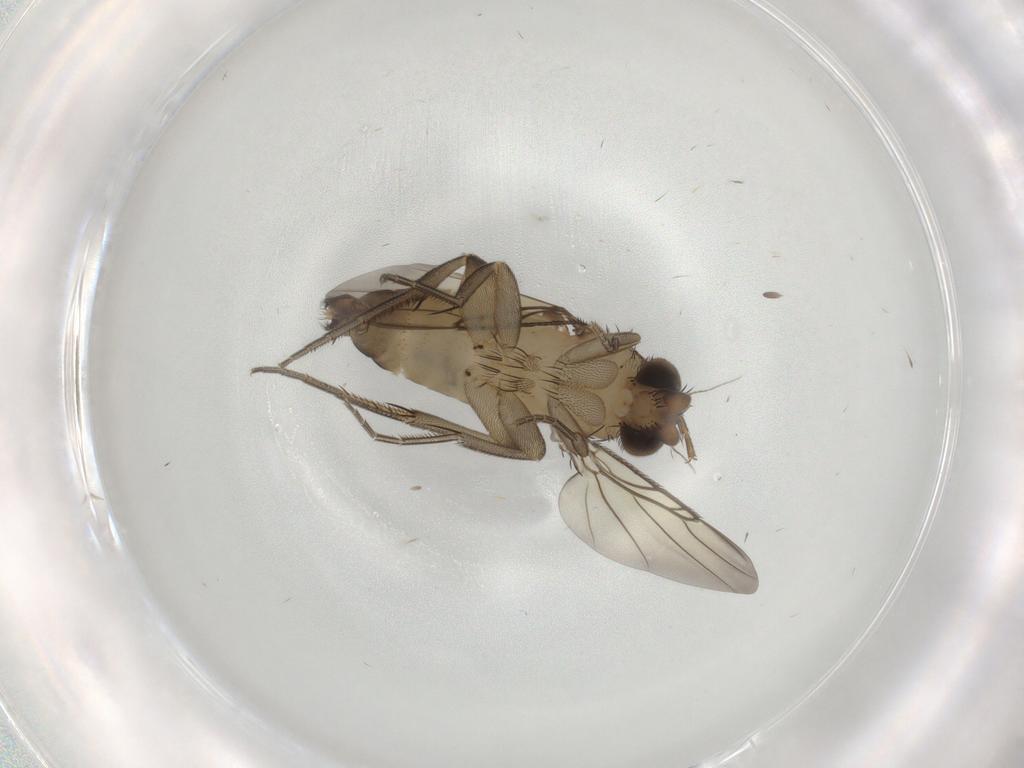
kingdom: Animalia
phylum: Arthropoda
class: Insecta
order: Diptera
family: Phoridae
